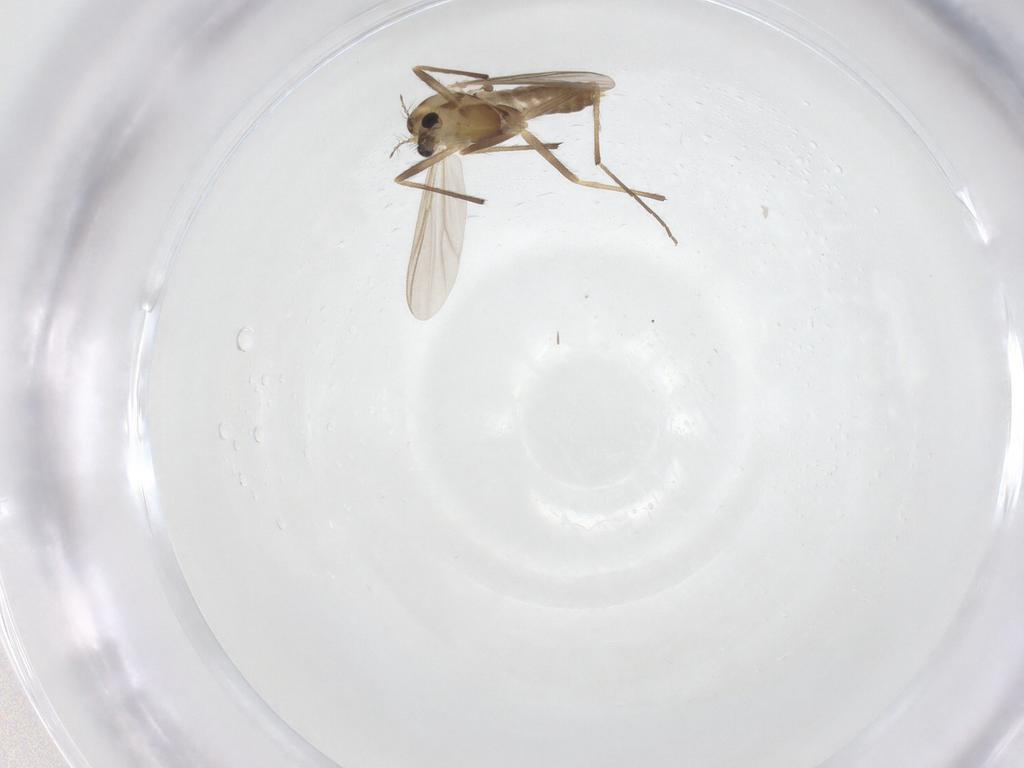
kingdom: Animalia
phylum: Arthropoda
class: Insecta
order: Diptera
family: Chironomidae
